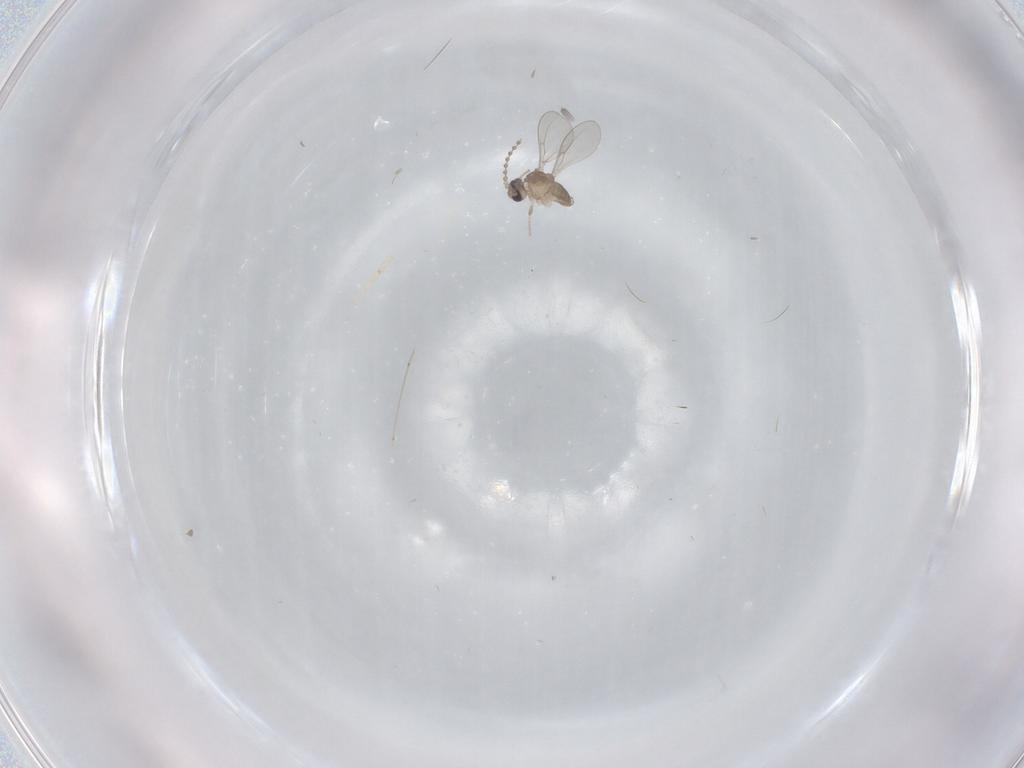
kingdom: Animalia
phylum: Arthropoda
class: Insecta
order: Diptera
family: Cecidomyiidae
